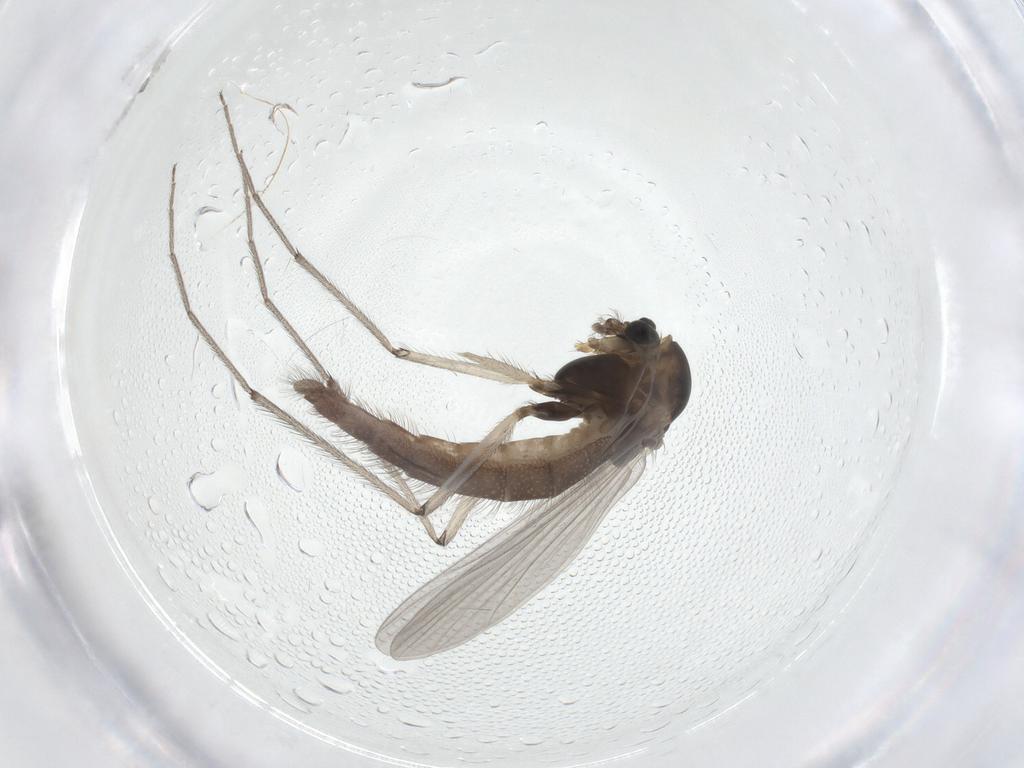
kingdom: Animalia
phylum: Arthropoda
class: Insecta
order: Diptera
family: Chironomidae
